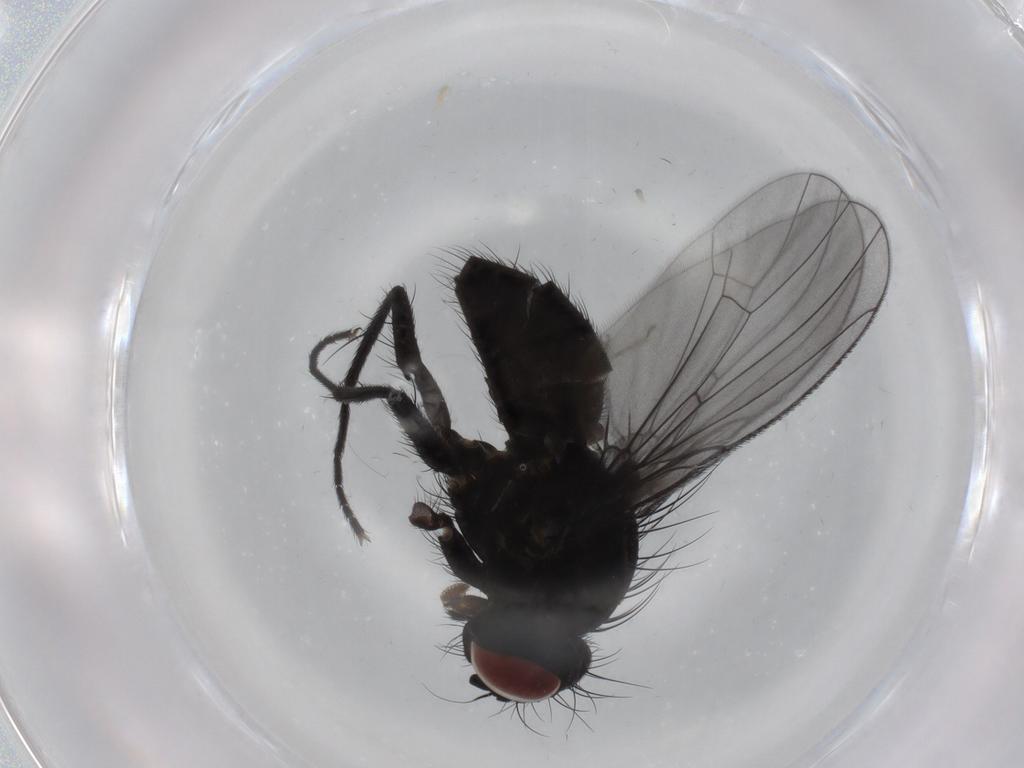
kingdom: Animalia
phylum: Arthropoda
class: Insecta
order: Diptera
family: Muscidae
